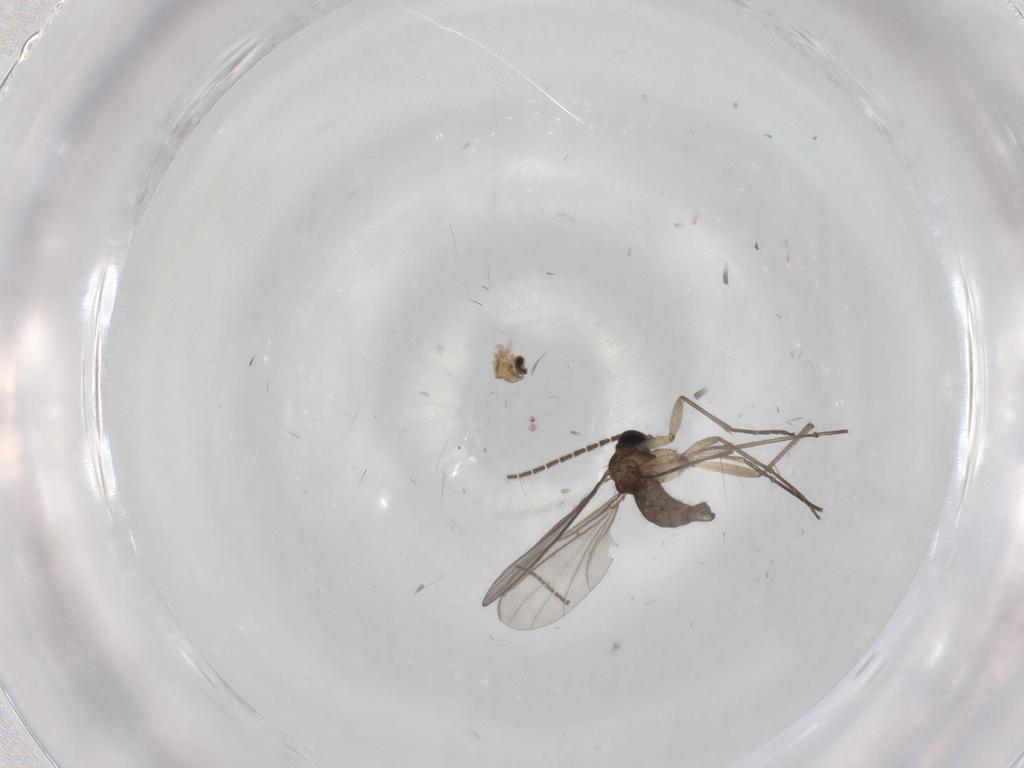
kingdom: Animalia
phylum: Arthropoda
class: Insecta
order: Diptera
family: Cecidomyiidae
